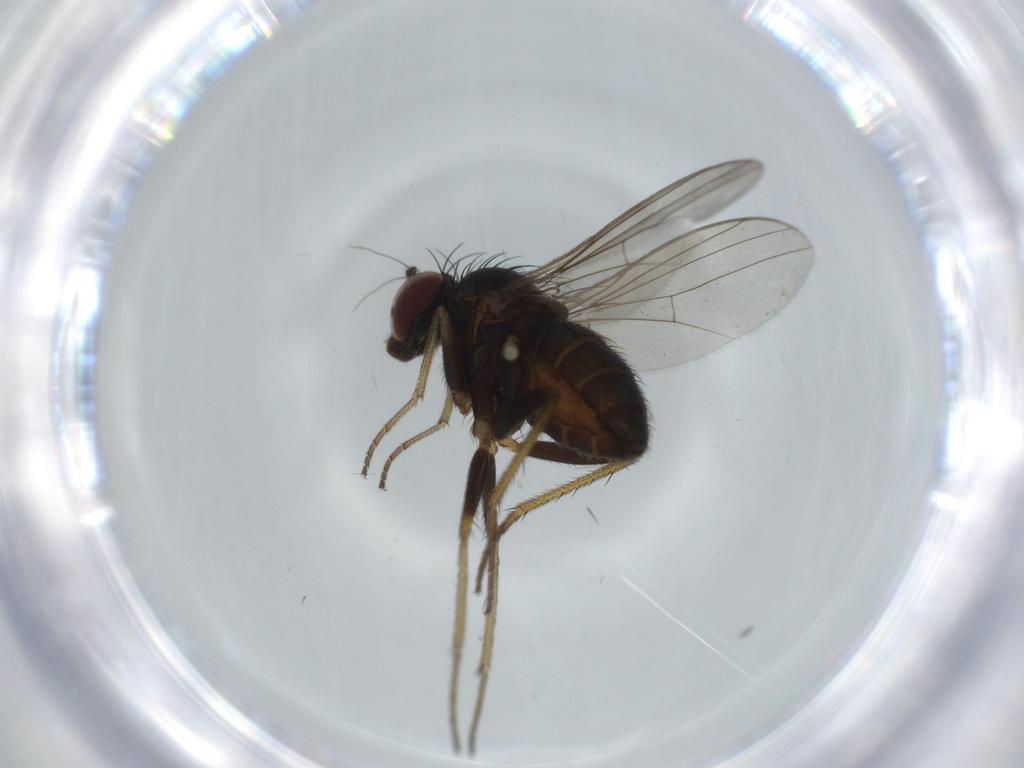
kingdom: Animalia
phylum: Arthropoda
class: Insecta
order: Diptera
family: Dolichopodidae
